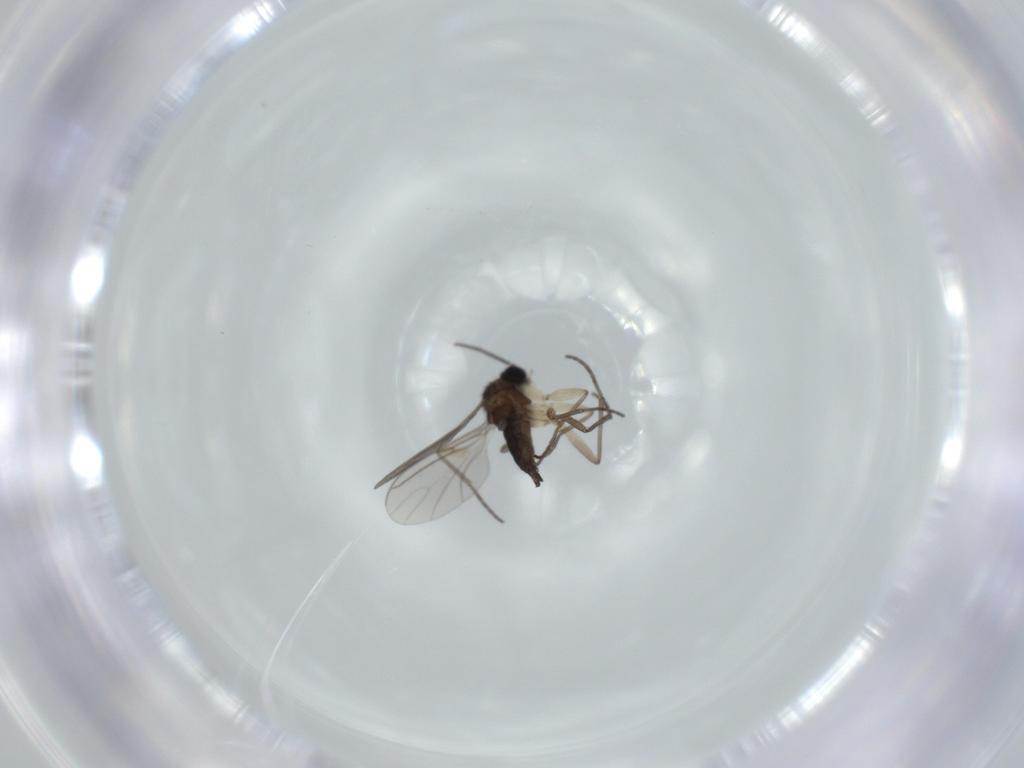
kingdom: Animalia
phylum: Arthropoda
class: Insecta
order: Diptera
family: Sciaridae
